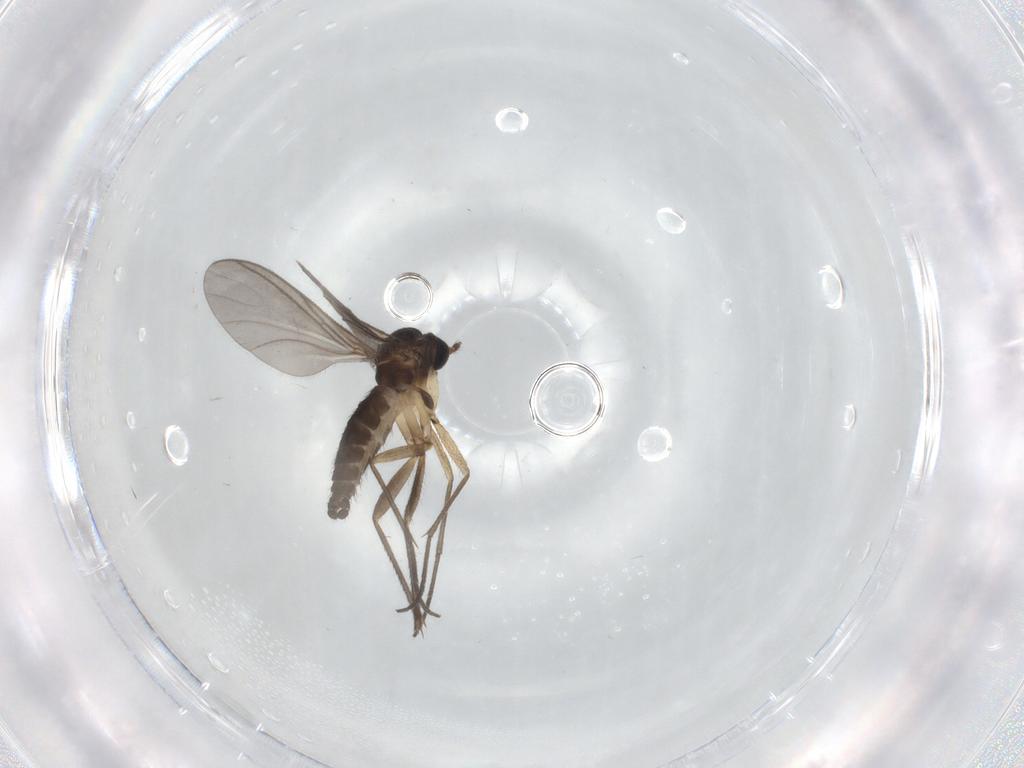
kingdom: Animalia
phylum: Arthropoda
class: Insecta
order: Diptera
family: Sciaridae
